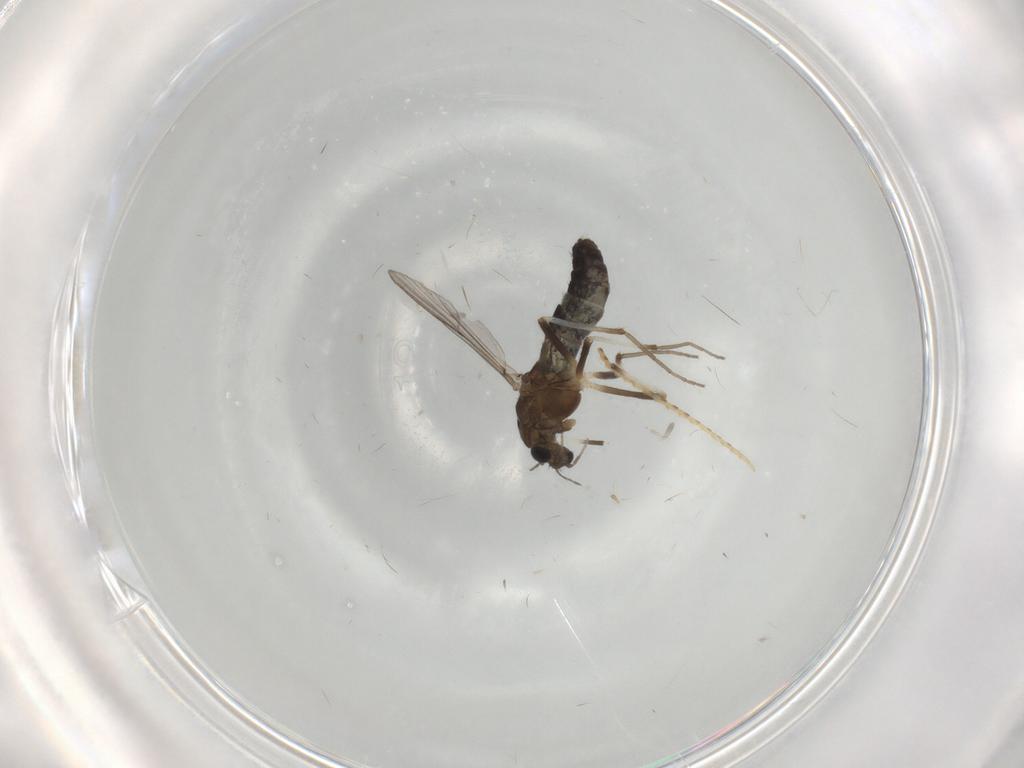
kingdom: Animalia
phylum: Arthropoda
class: Insecta
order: Diptera
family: Chironomidae
